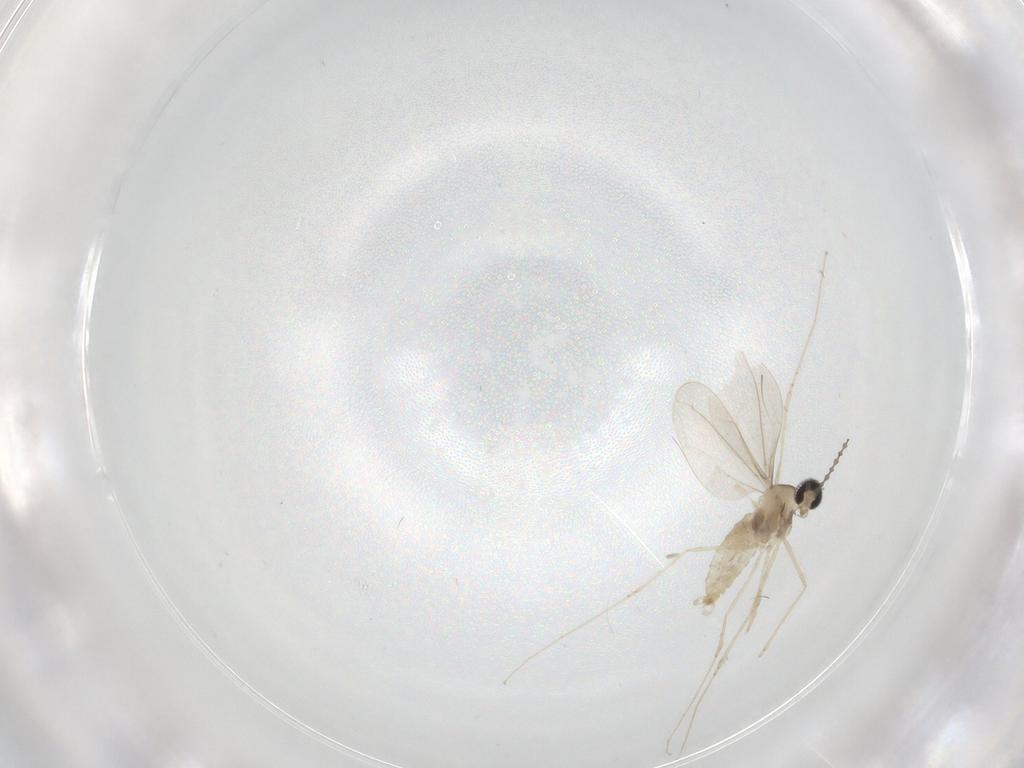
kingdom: Animalia
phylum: Arthropoda
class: Insecta
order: Diptera
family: Cecidomyiidae
